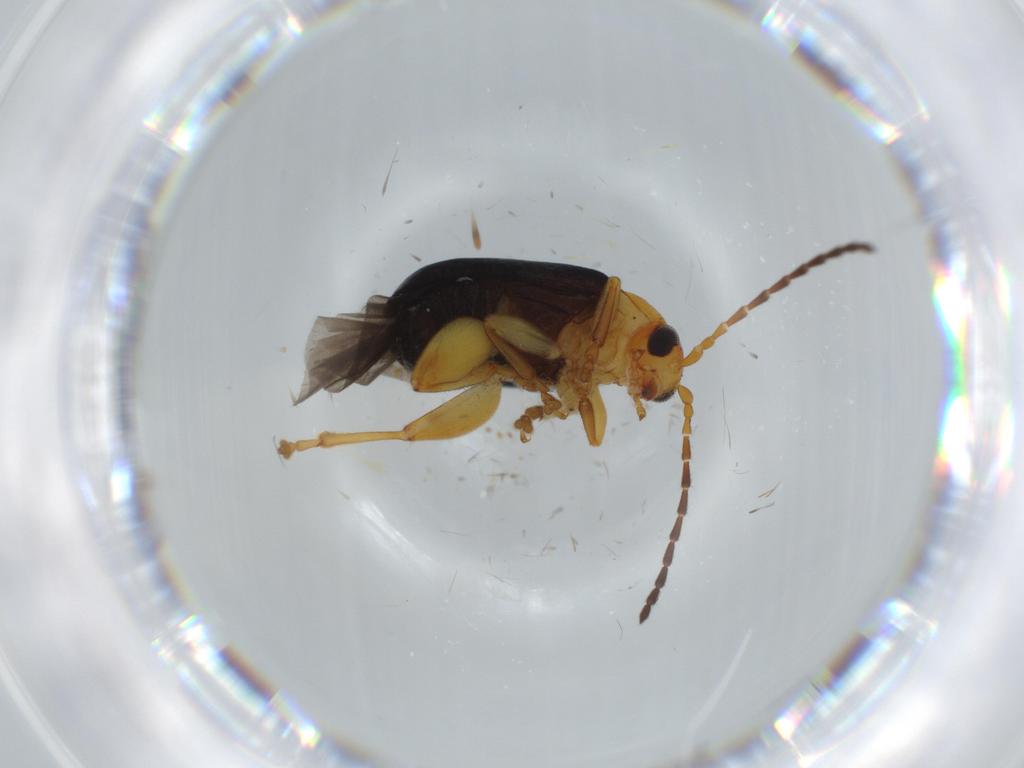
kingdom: Animalia
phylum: Arthropoda
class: Insecta
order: Coleoptera
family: Chrysomelidae
